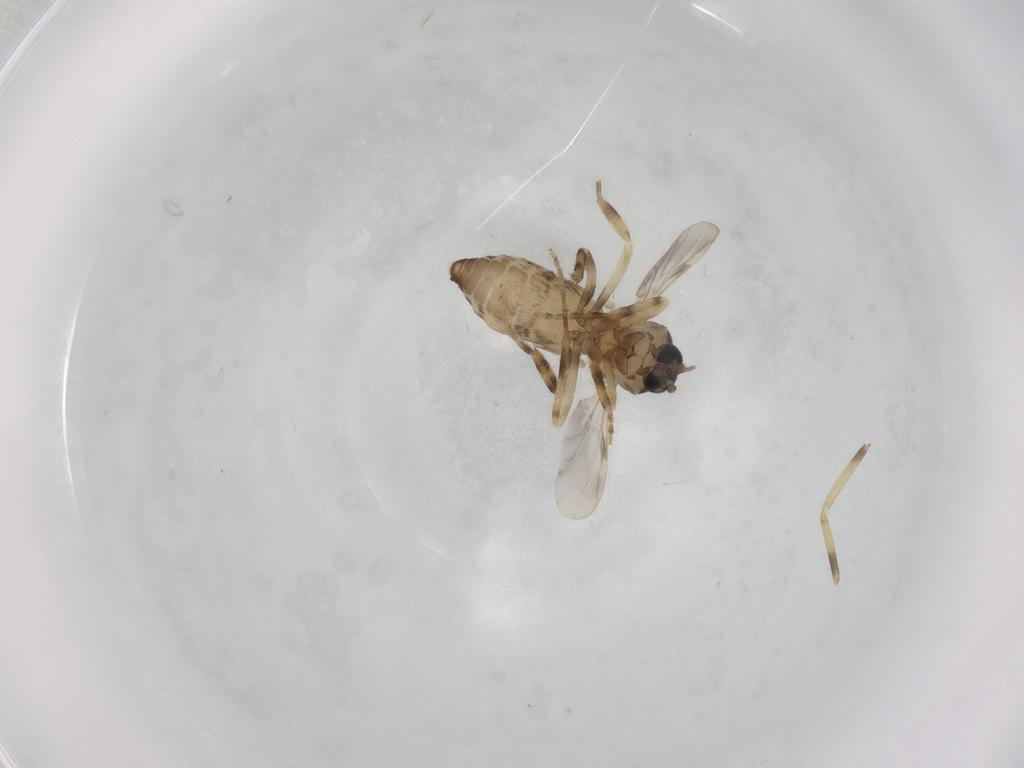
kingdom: Animalia
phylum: Arthropoda
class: Insecta
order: Diptera
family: Ceratopogonidae
